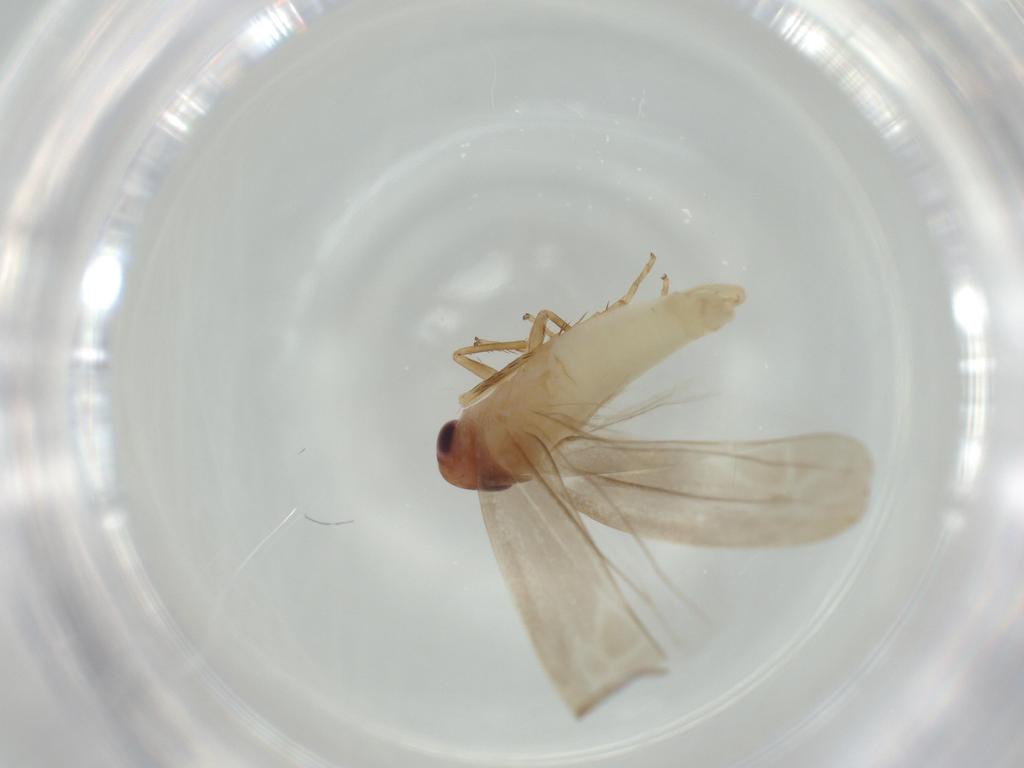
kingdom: Animalia
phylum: Arthropoda
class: Insecta
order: Hemiptera
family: Cicadellidae
